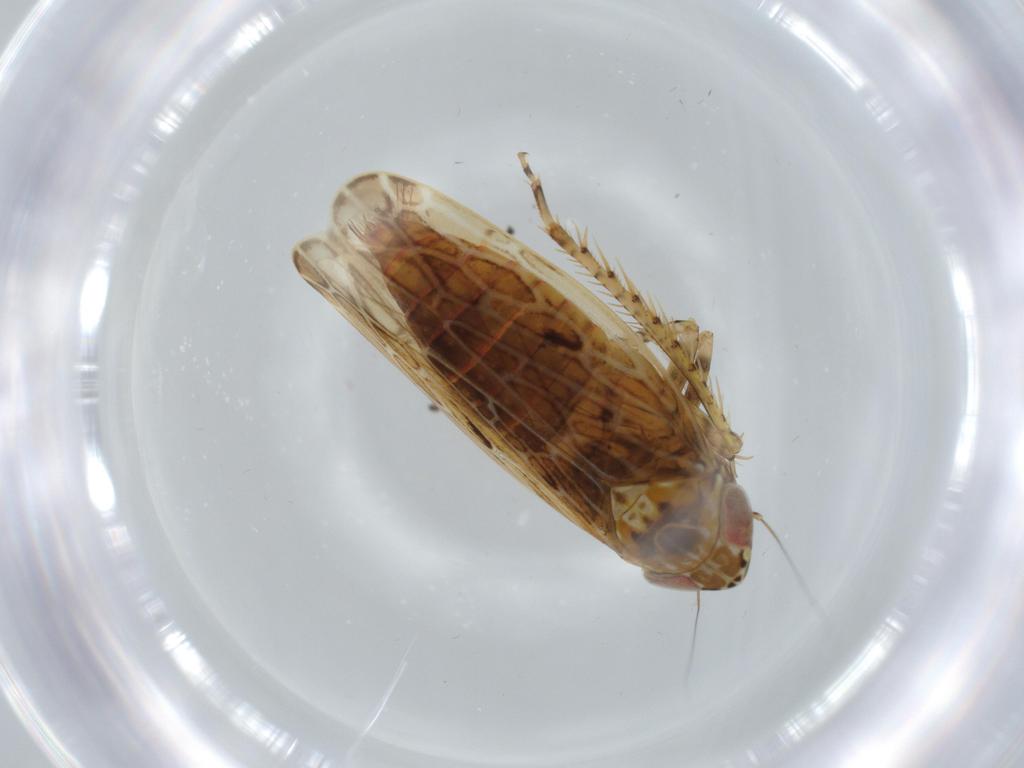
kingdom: Animalia
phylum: Arthropoda
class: Insecta
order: Hemiptera
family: Cicadellidae
